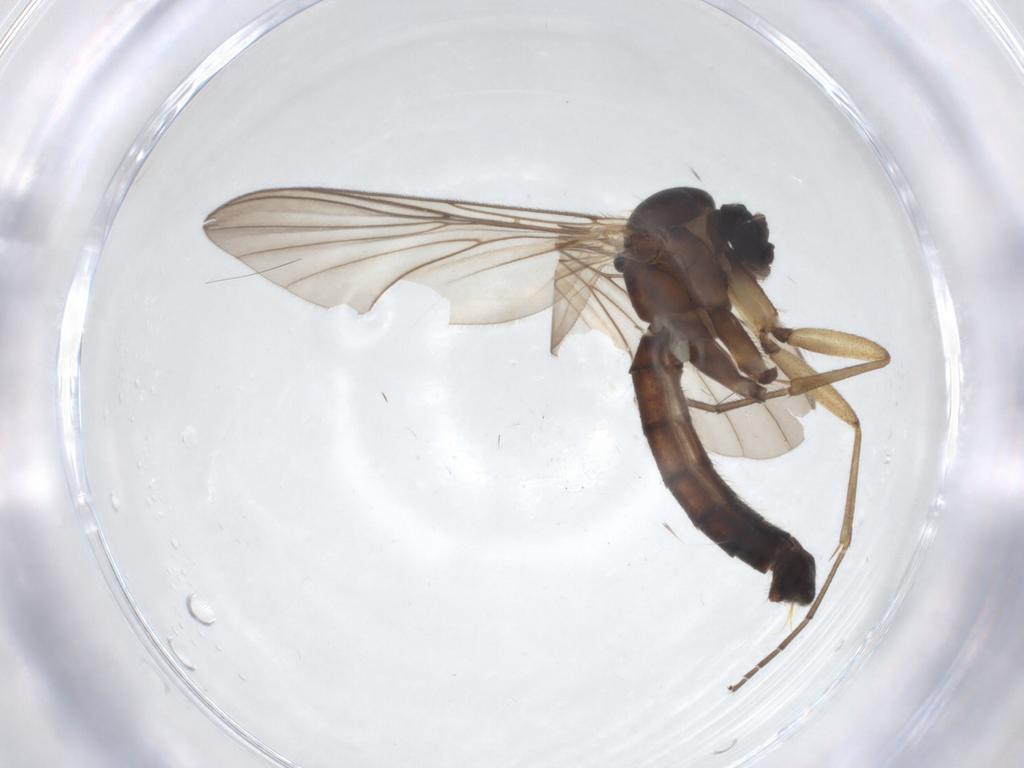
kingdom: Animalia
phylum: Arthropoda
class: Insecta
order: Diptera
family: Mycetophilidae
